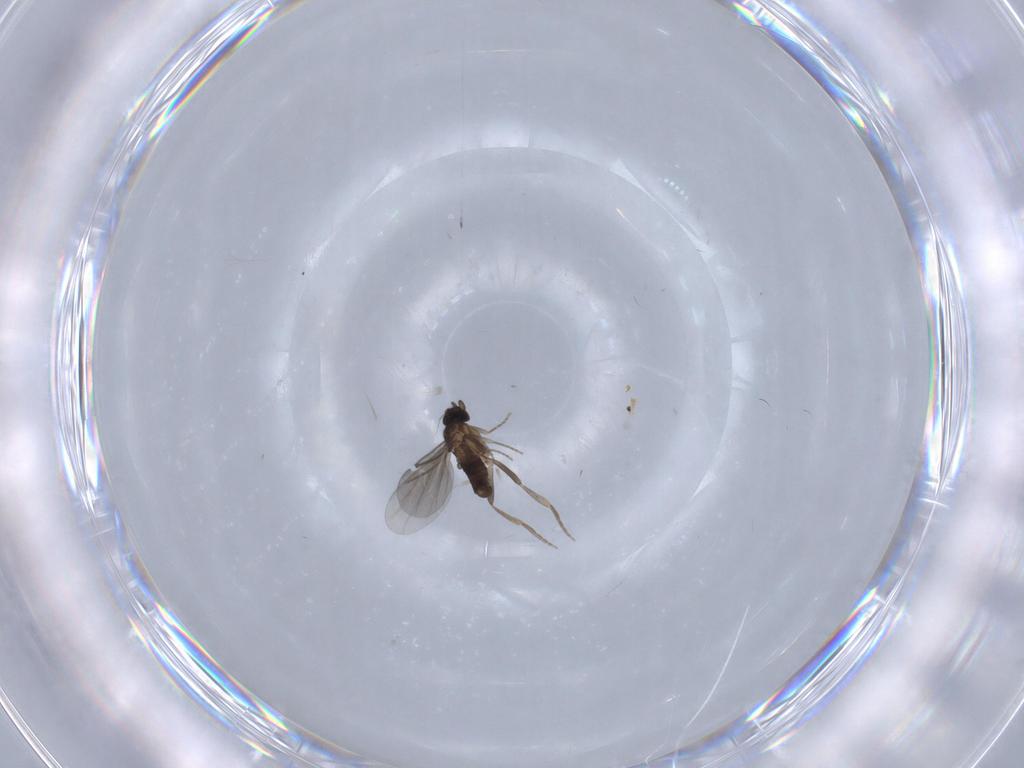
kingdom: Animalia
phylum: Arthropoda
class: Insecta
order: Diptera
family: Phoridae
